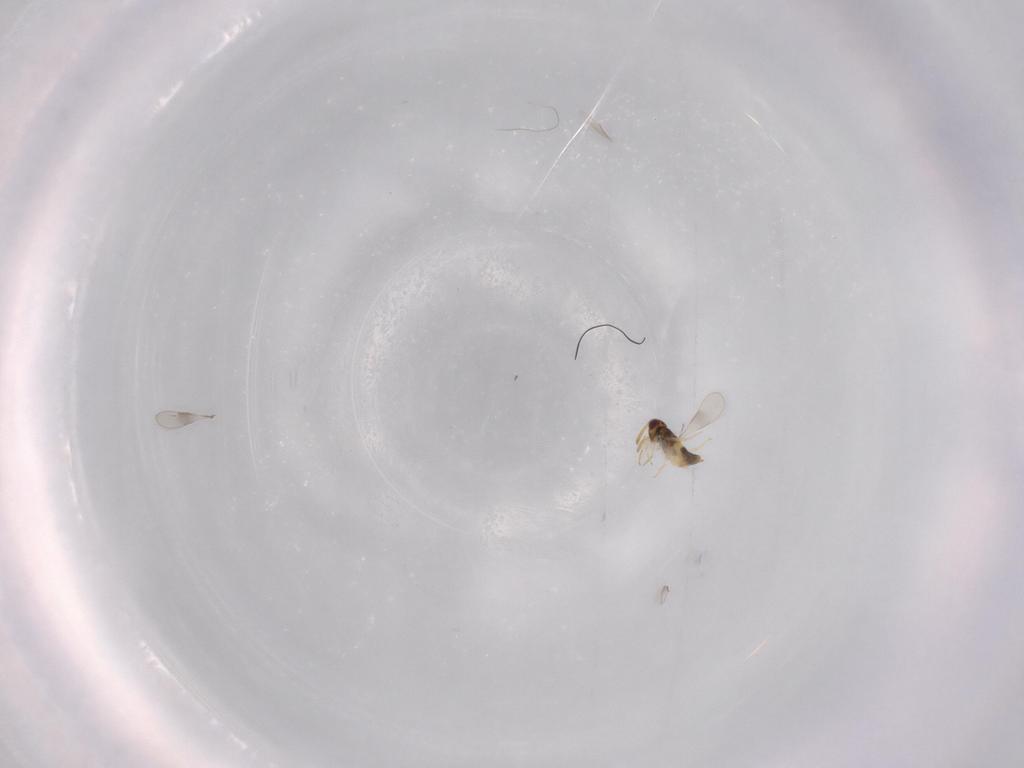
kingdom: Animalia
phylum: Arthropoda
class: Insecta
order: Hymenoptera
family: Aphelinidae
